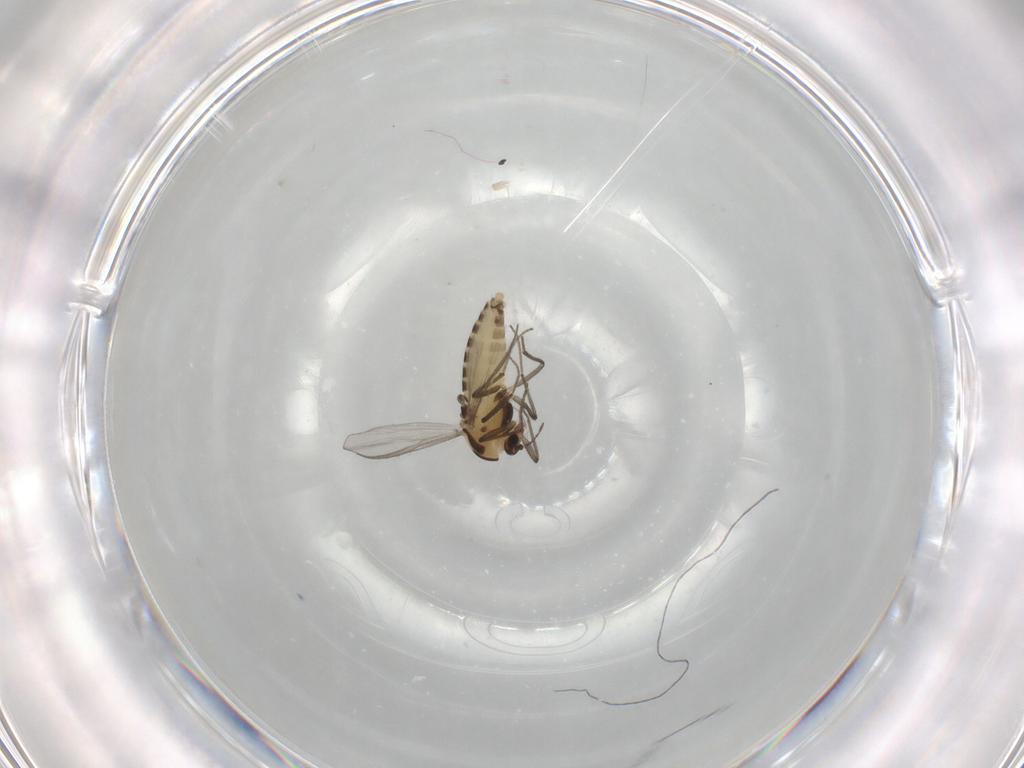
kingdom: Animalia
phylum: Arthropoda
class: Insecta
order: Diptera
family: Chironomidae
